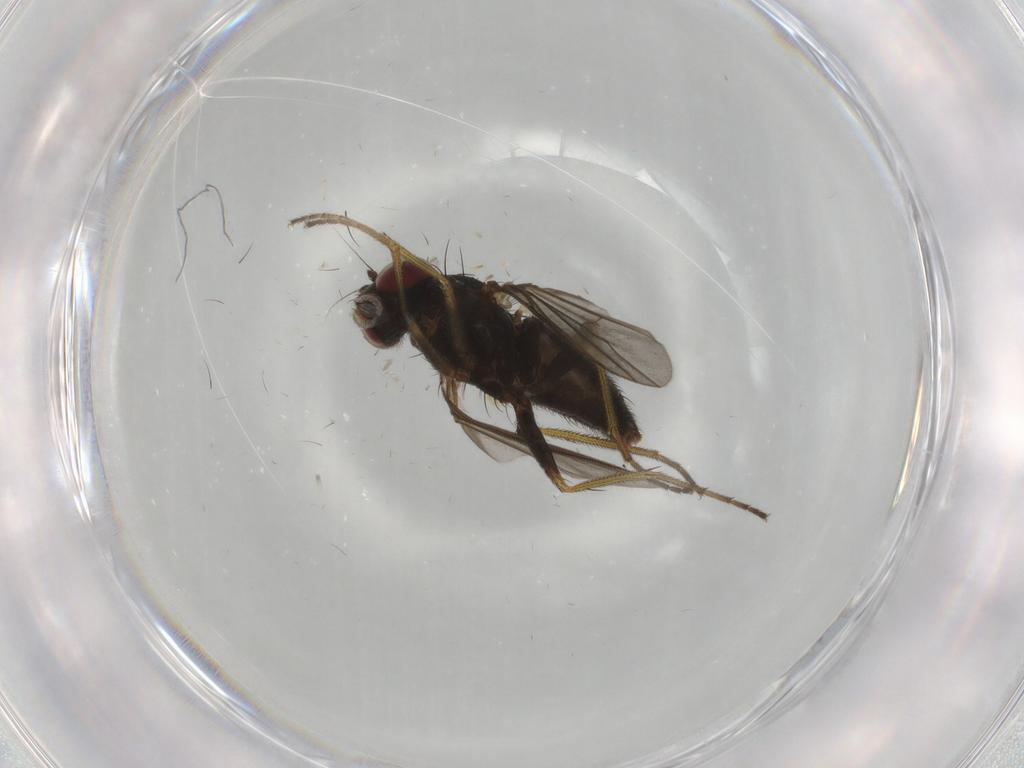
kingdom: Animalia
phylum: Arthropoda
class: Insecta
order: Diptera
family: Dolichopodidae
